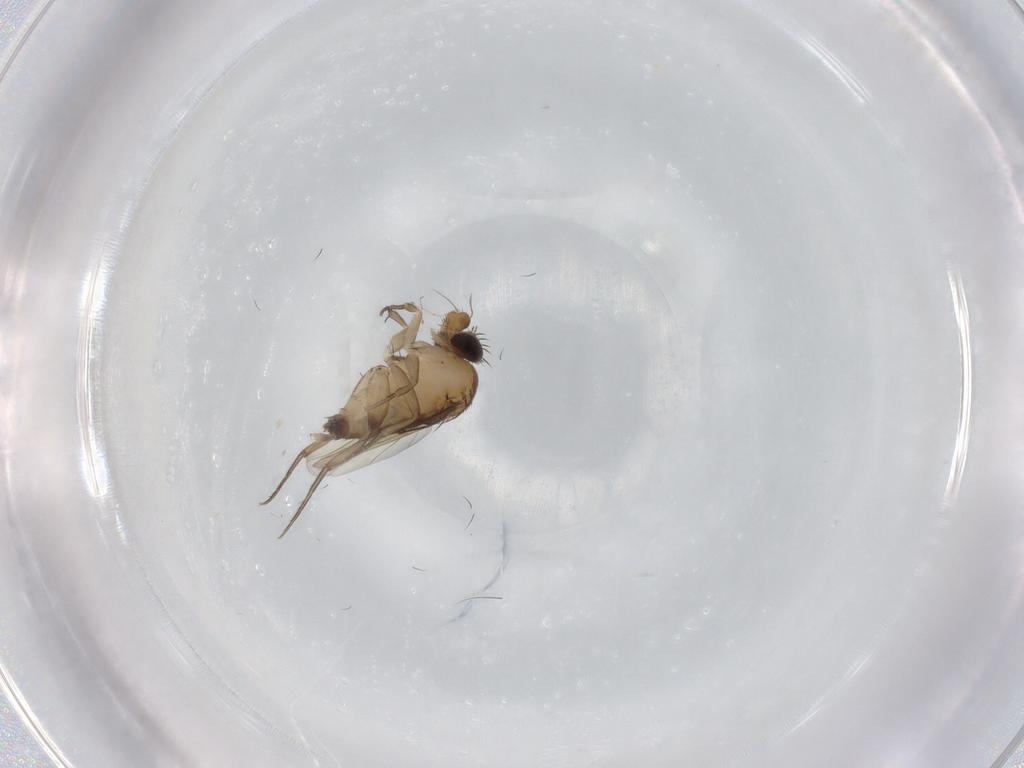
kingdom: Animalia
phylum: Arthropoda
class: Insecta
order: Diptera
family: Phoridae
